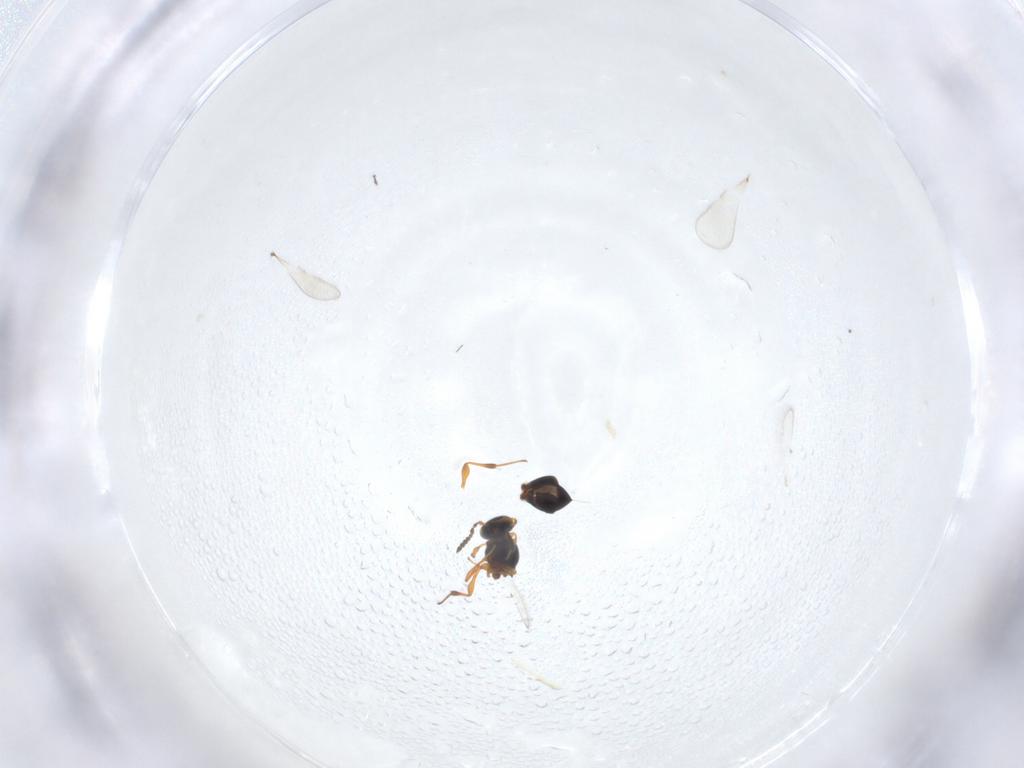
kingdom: Animalia
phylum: Arthropoda
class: Insecta
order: Hymenoptera
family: Platygastridae
